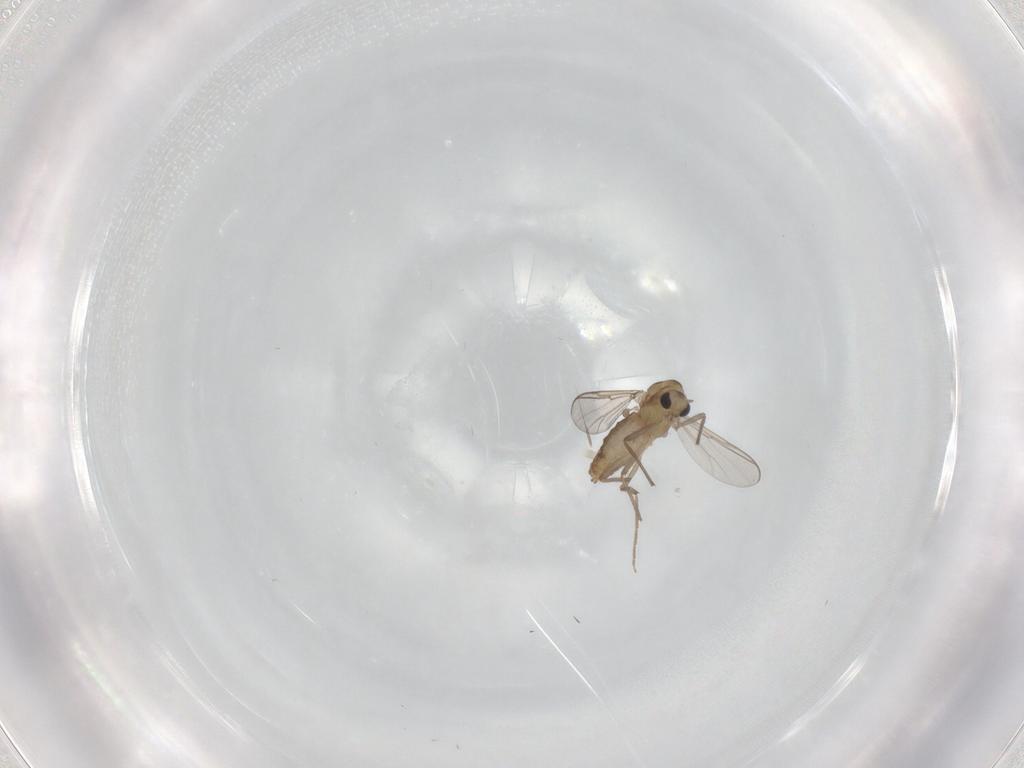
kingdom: Animalia
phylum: Arthropoda
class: Insecta
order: Diptera
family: Chironomidae
